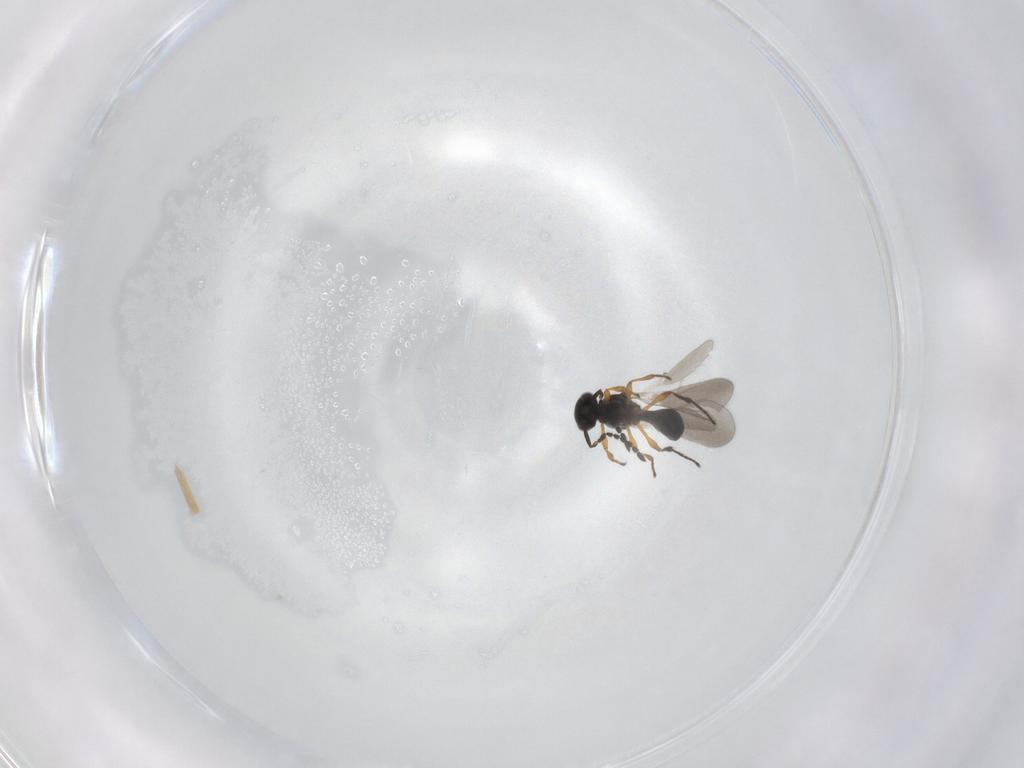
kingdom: Animalia
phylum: Arthropoda
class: Insecta
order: Hymenoptera
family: Platygastridae
